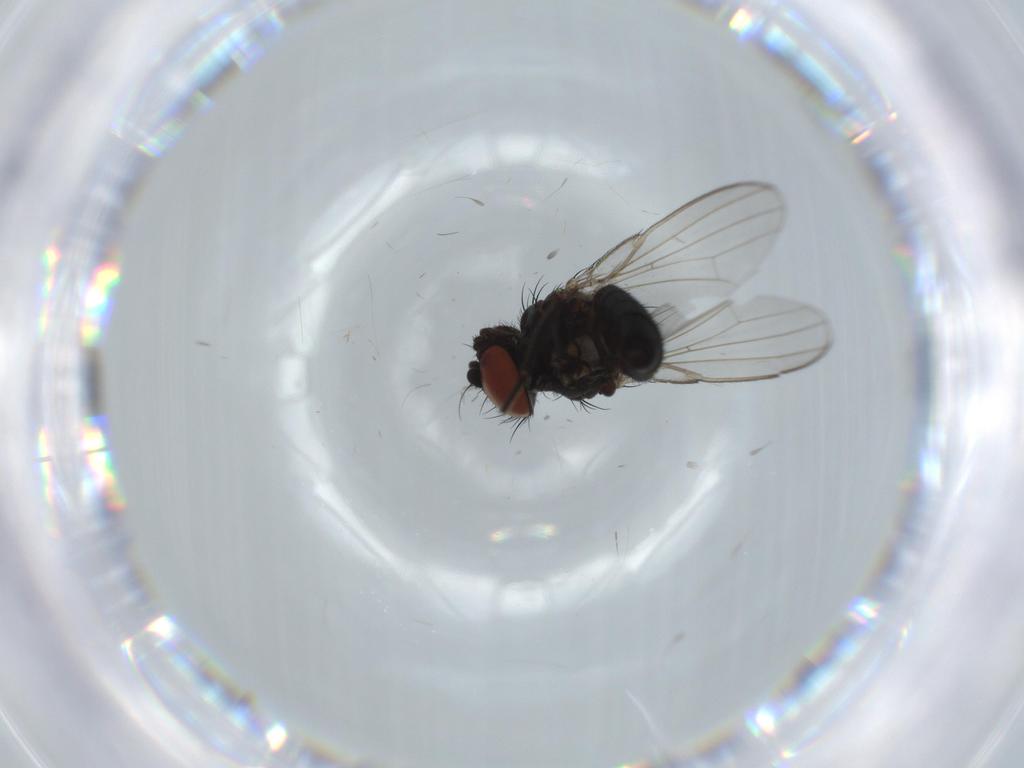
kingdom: Animalia
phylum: Arthropoda
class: Insecta
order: Diptera
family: Milichiidae
